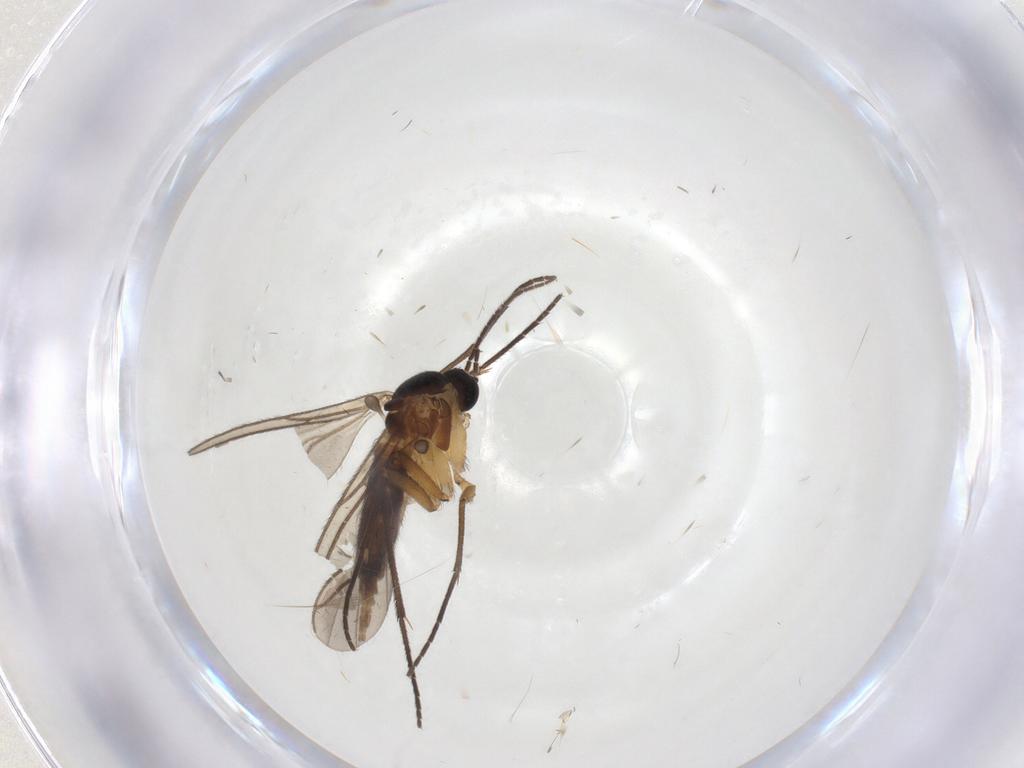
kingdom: Animalia
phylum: Arthropoda
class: Insecta
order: Diptera
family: Sciaridae
